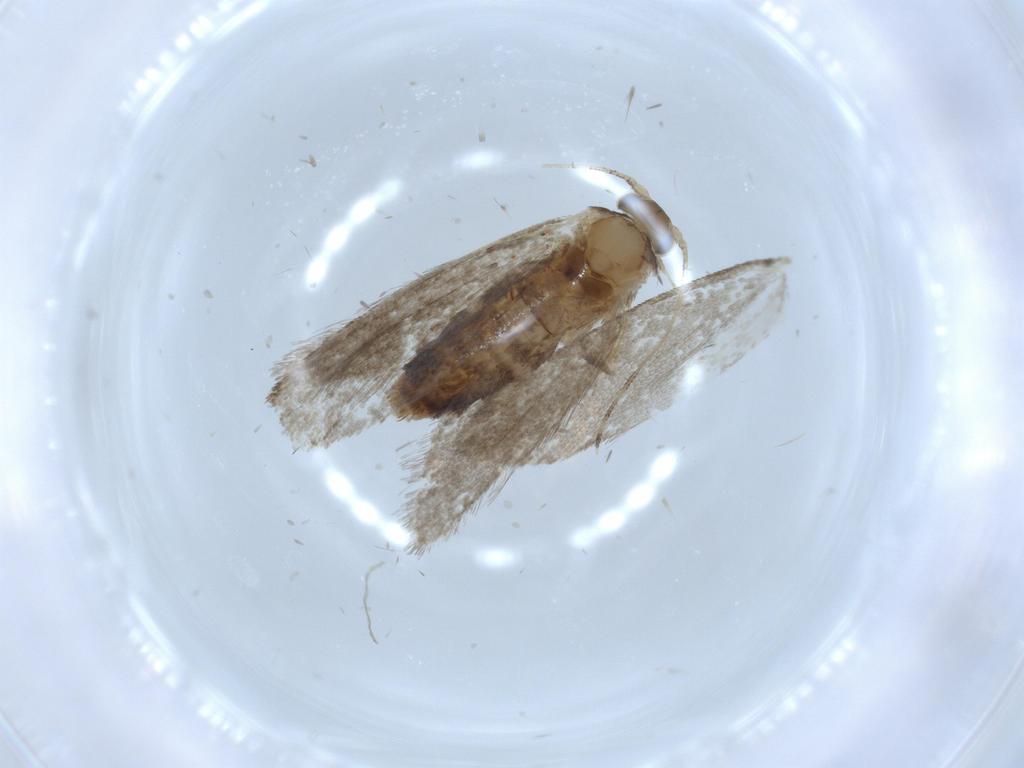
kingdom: Animalia
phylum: Arthropoda
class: Insecta
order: Lepidoptera
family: Tineidae
